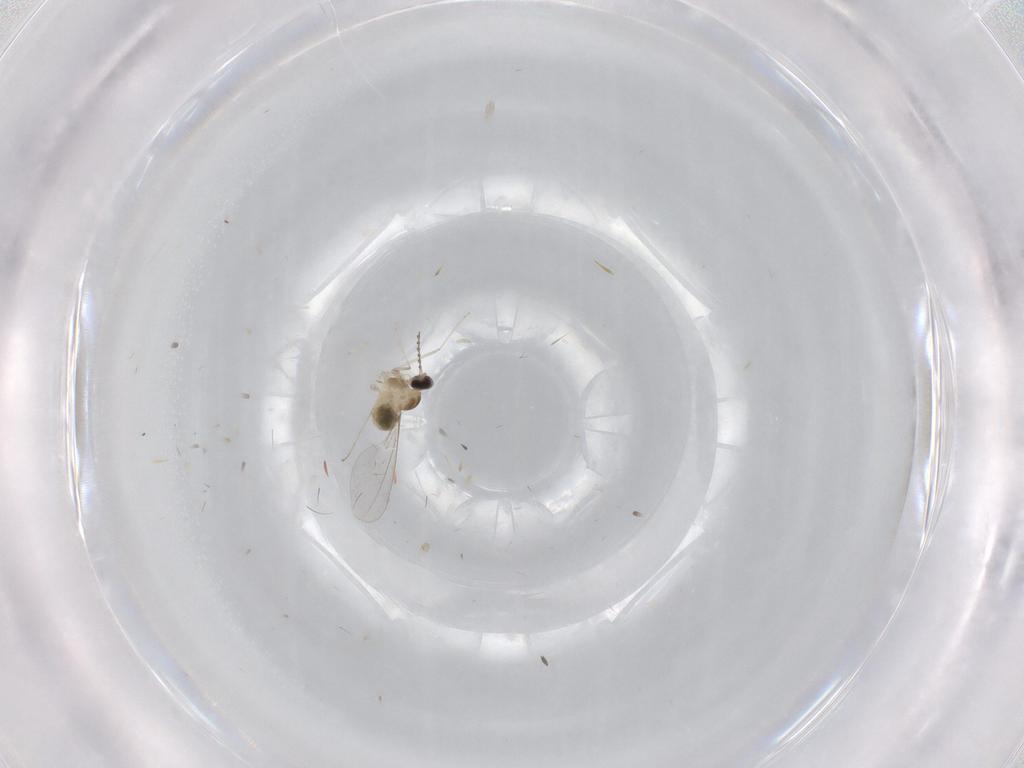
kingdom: Animalia
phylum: Arthropoda
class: Insecta
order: Diptera
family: Cecidomyiidae
